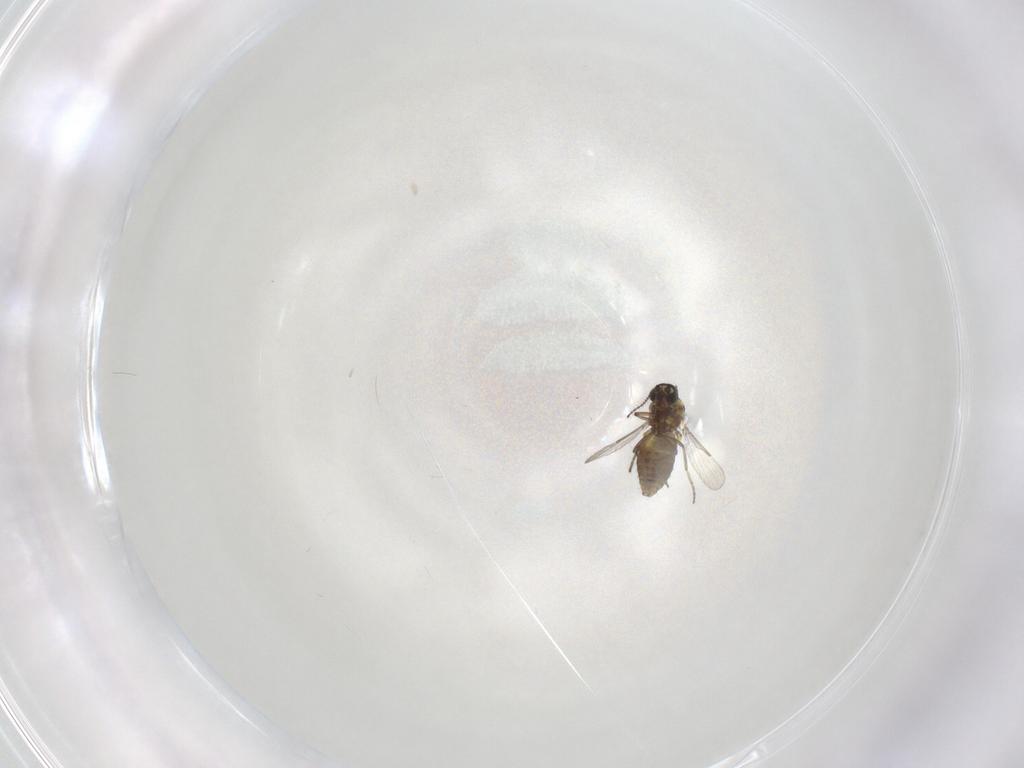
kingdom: Animalia
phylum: Arthropoda
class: Insecta
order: Diptera
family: Ceratopogonidae
